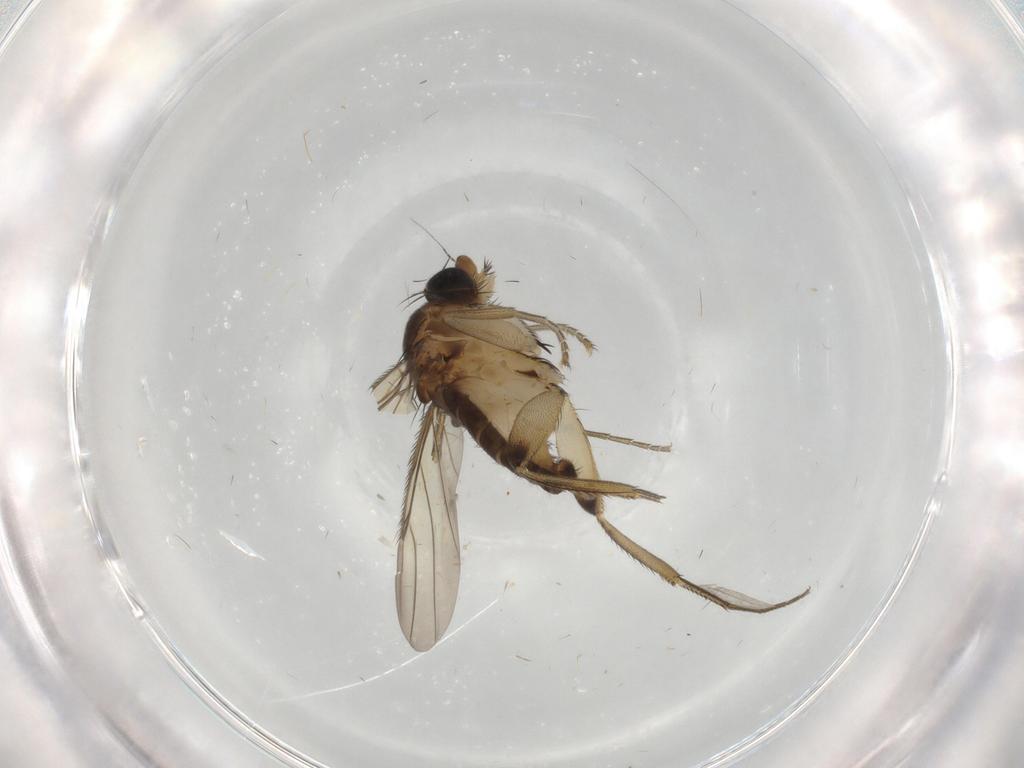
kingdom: Animalia
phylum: Arthropoda
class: Insecta
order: Diptera
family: Phoridae
